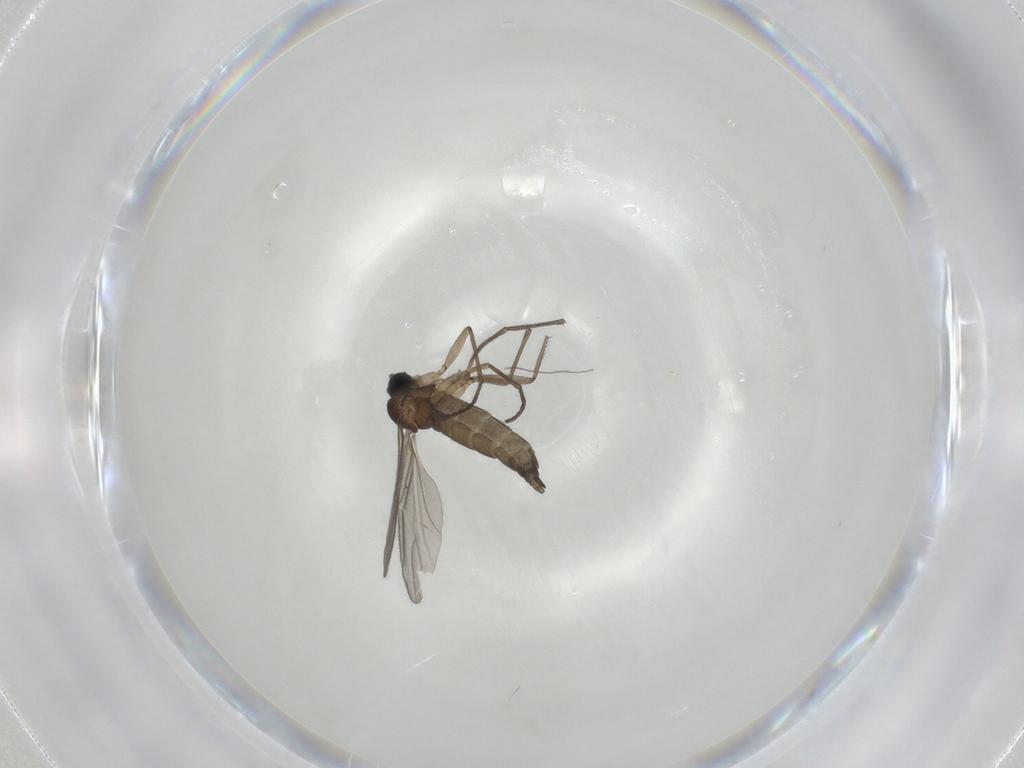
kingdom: Animalia
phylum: Arthropoda
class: Insecta
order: Diptera
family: Sciaridae
